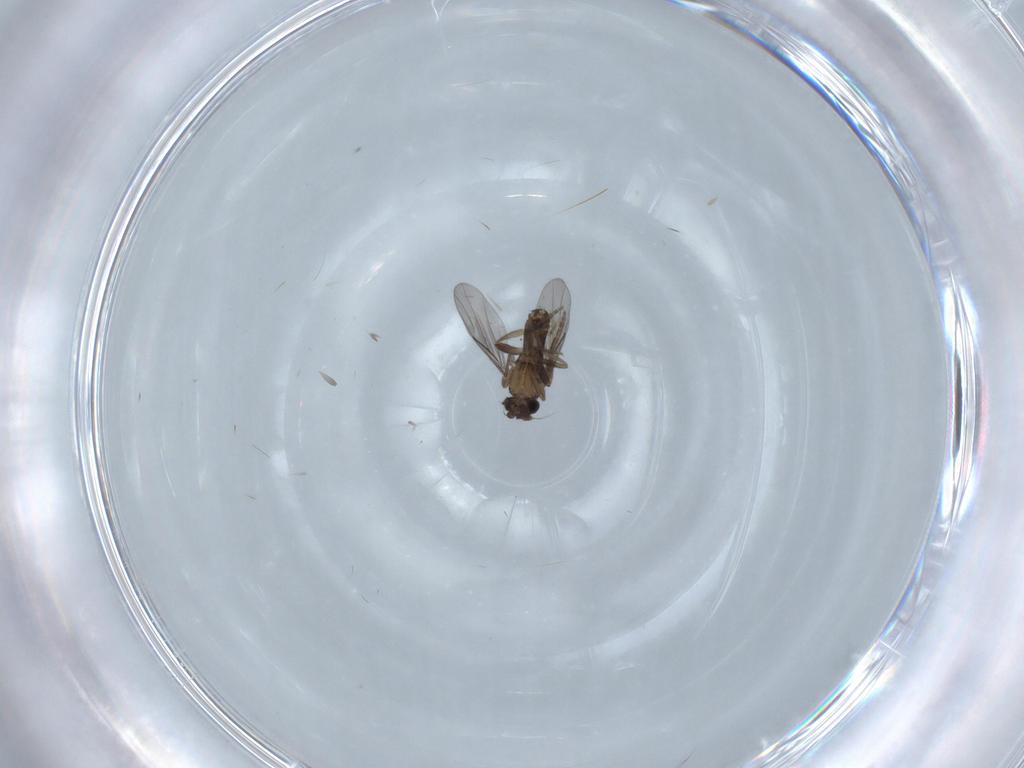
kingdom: Animalia
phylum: Arthropoda
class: Insecta
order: Diptera
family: Cecidomyiidae
